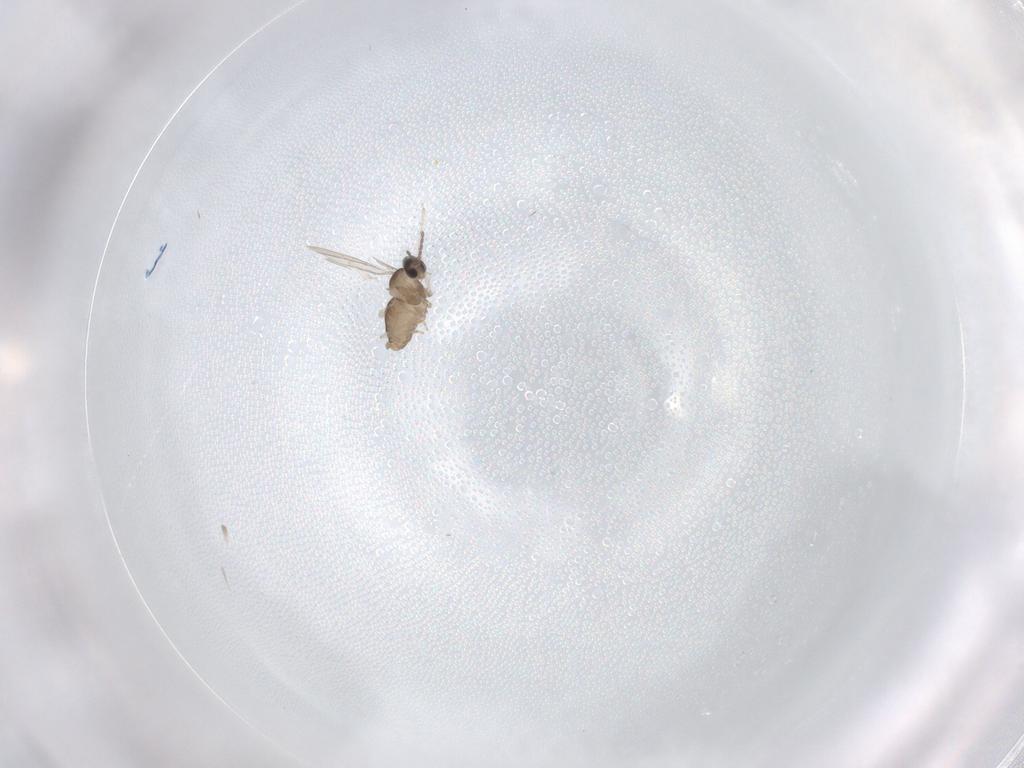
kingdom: Animalia
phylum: Arthropoda
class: Insecta
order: Diptera
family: Cecidomyiidae
